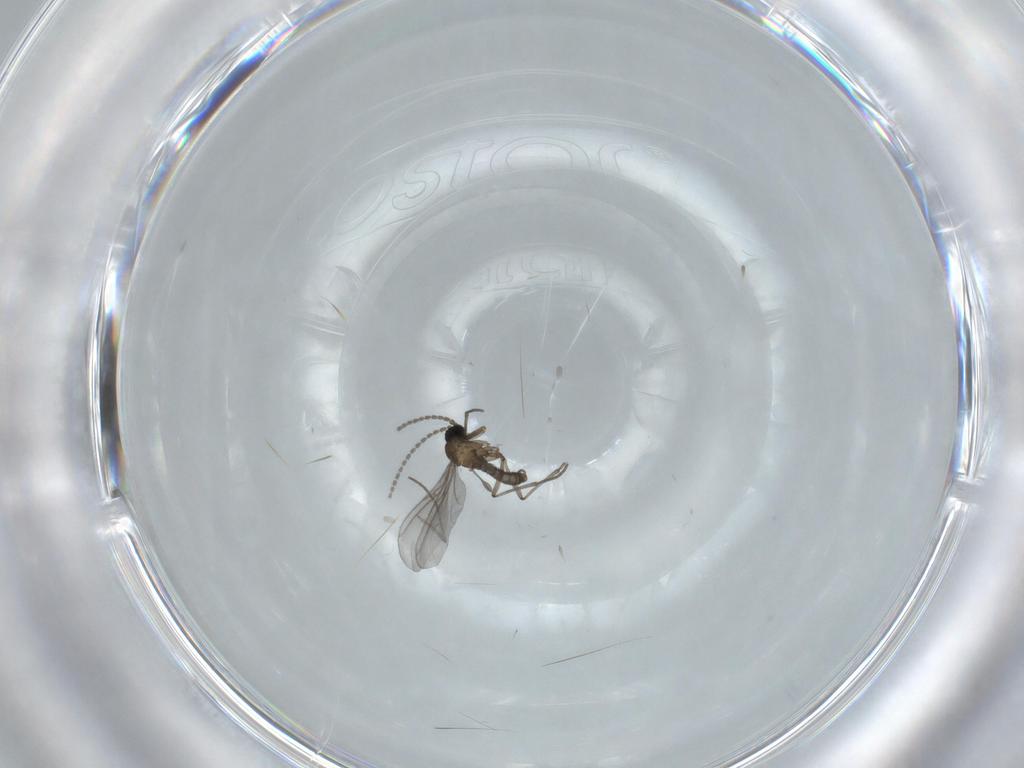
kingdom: Animalia
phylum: Arthropoda
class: Insecta
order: Diptera
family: Sciaridae
